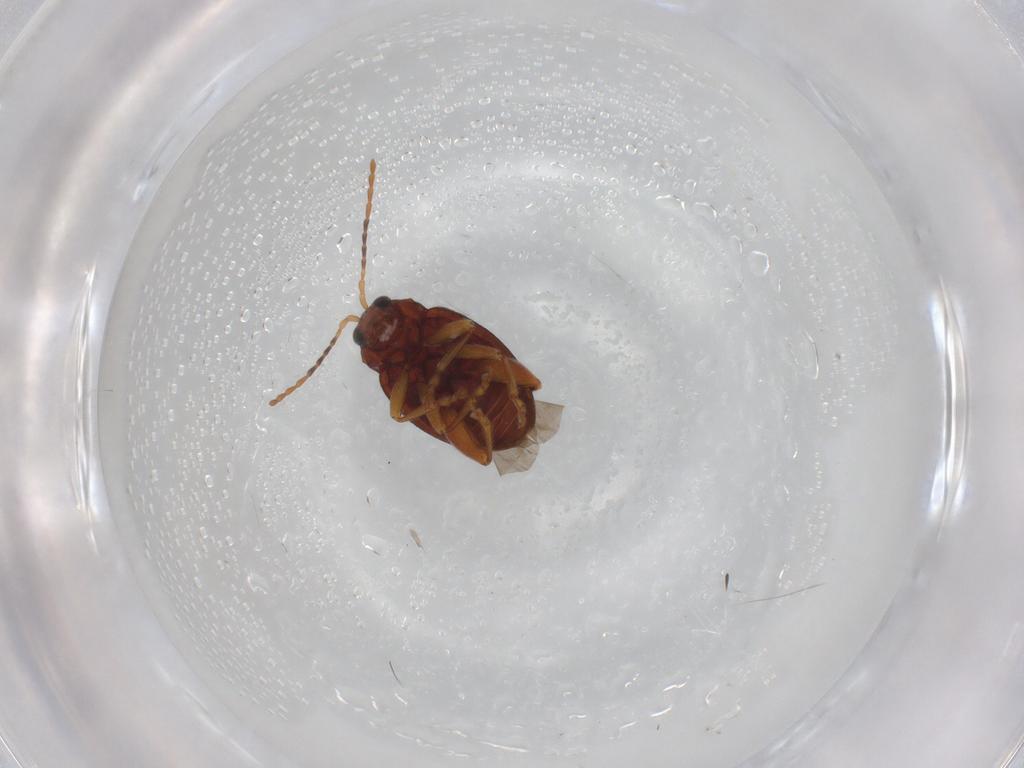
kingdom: Animalia
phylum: Arthropoda
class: Insecta
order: Coleoptera
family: Chrysomelidae
